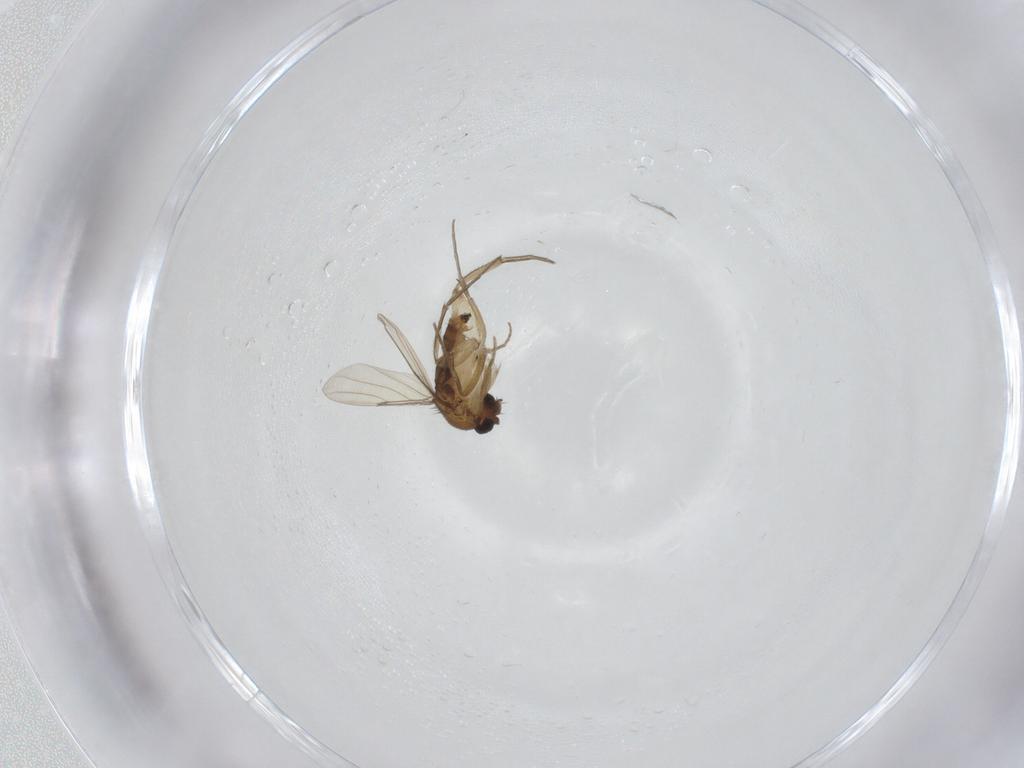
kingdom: Animalia
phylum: Arthropoda
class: Insecta
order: Diptera
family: Phoridae
